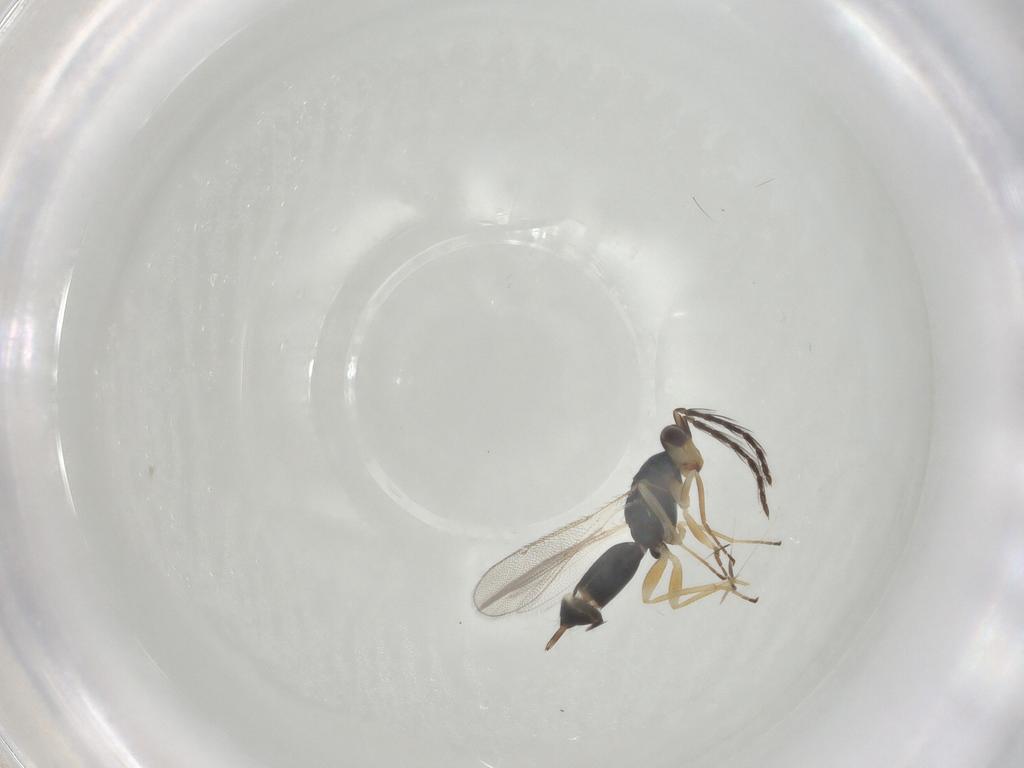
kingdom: Animalia
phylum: Arthropoda
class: Insecta
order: Hymenoptera
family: Eulophidae
